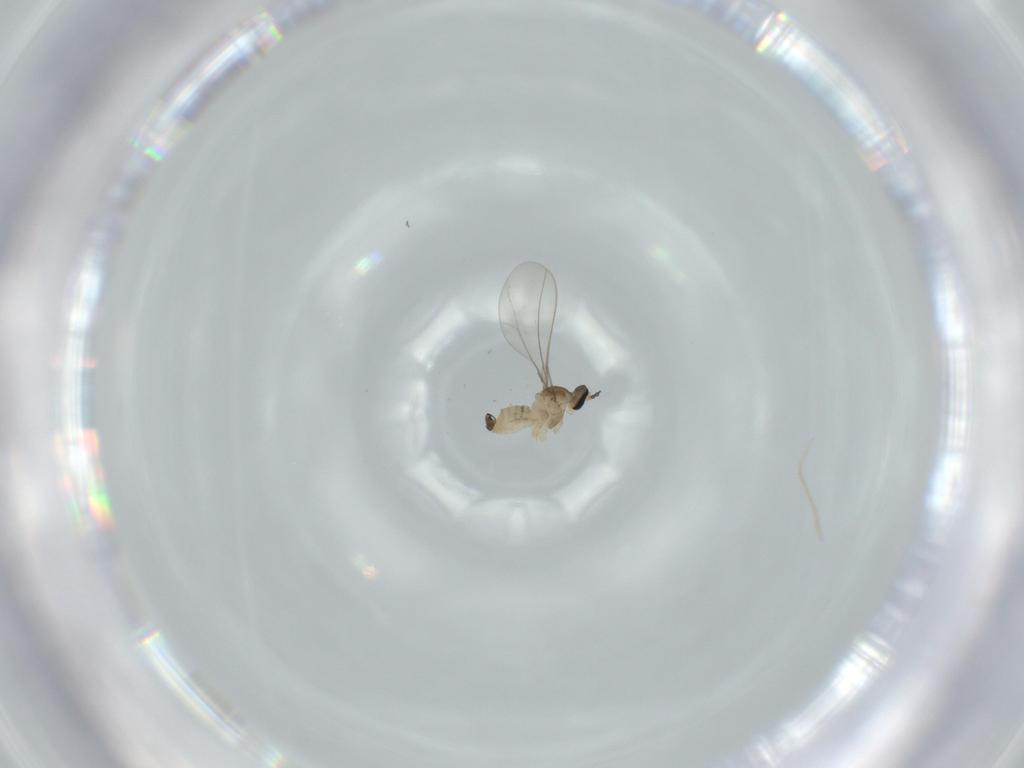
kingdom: Animalia
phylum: Arthropoda
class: Insecta
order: Diptera
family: Cecidomyiidae
